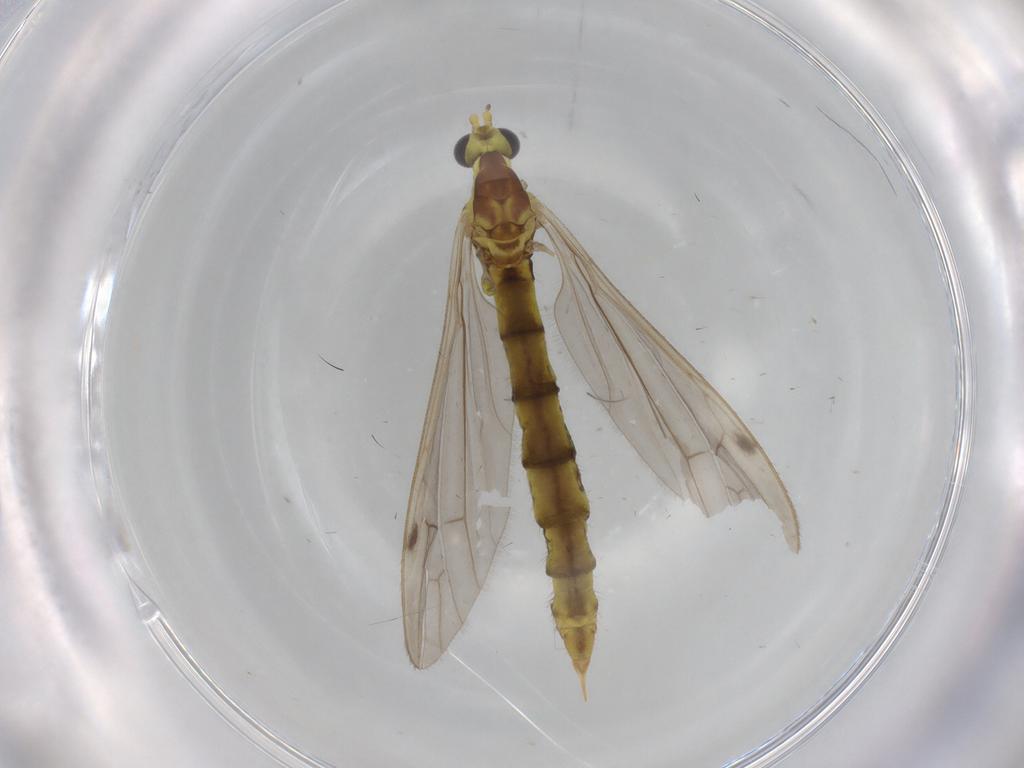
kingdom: Animalia
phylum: Arthropoda
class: Insecta
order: Diptera
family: Limoniidae
